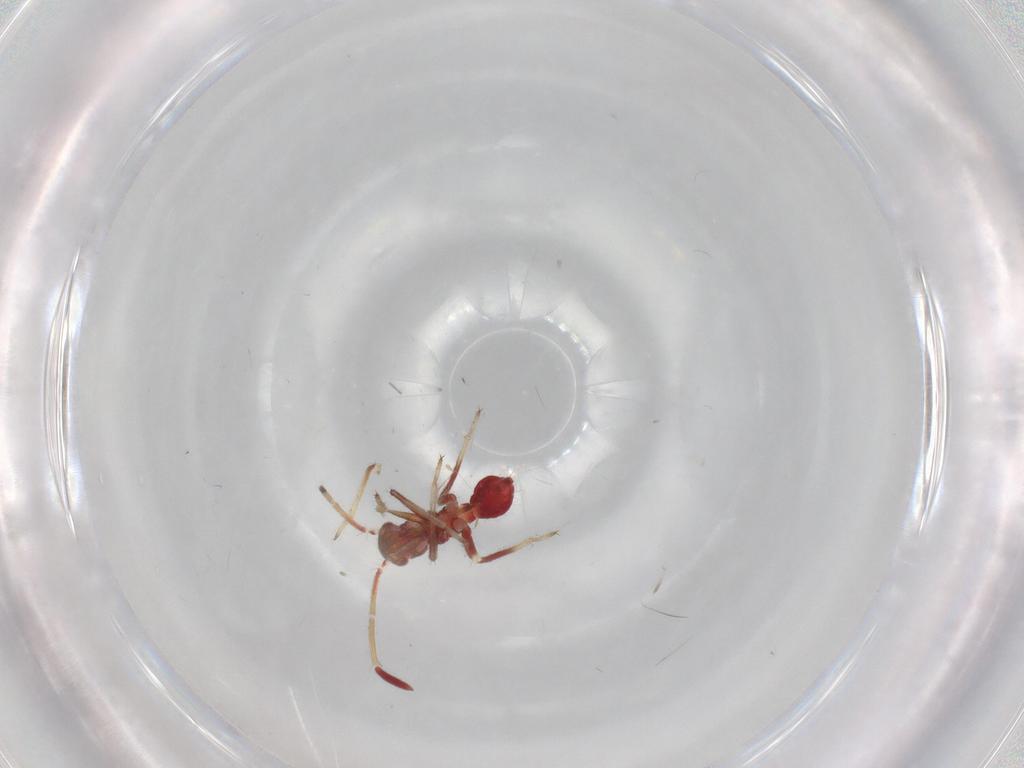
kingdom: Animalia
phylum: Arthropoda
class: Insecta
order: Hemiptera
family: Miridae
